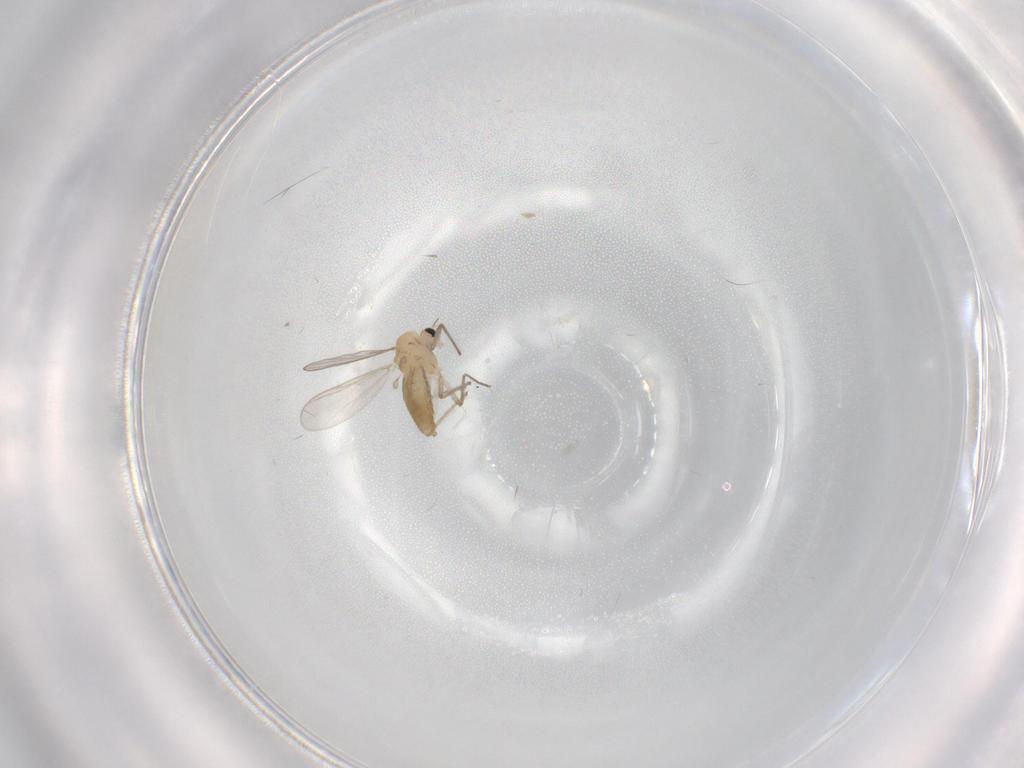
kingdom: Animalia
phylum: Arthropoda
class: Insecta
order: Diptera
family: Chironomidae
